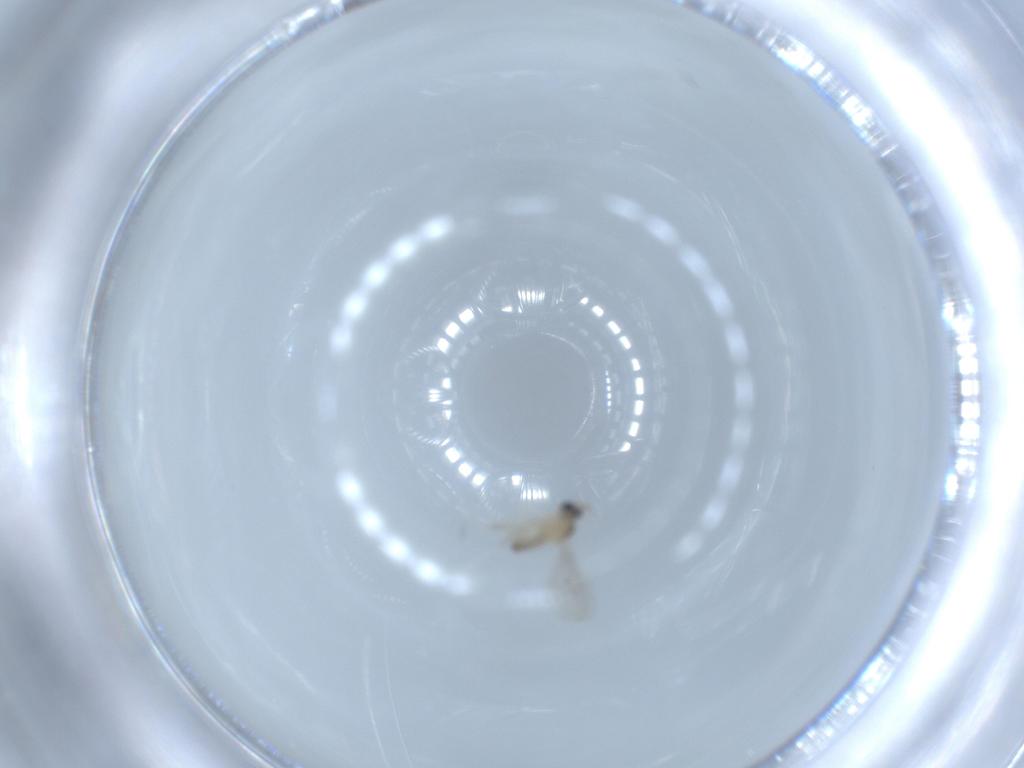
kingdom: Animalia
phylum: Arthropoda
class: Insecta
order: Diptera
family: Cecidomyiidae
